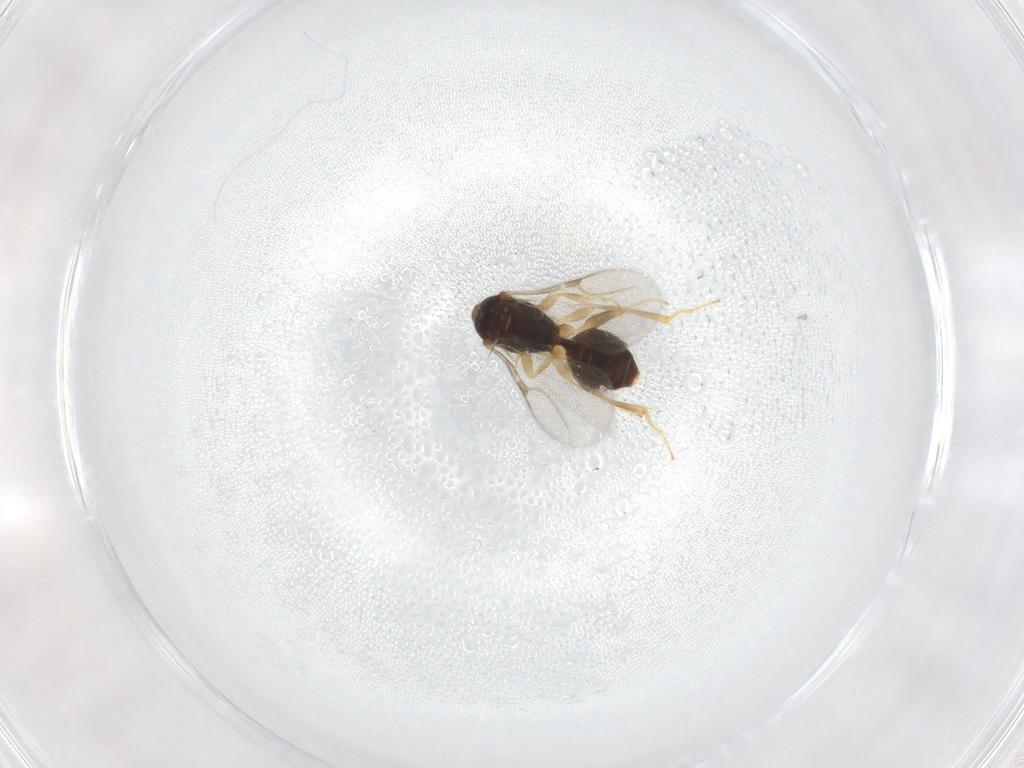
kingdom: Animalia
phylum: Arthropoda
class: Insecta
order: Hymenoptera
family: Bethylidae
